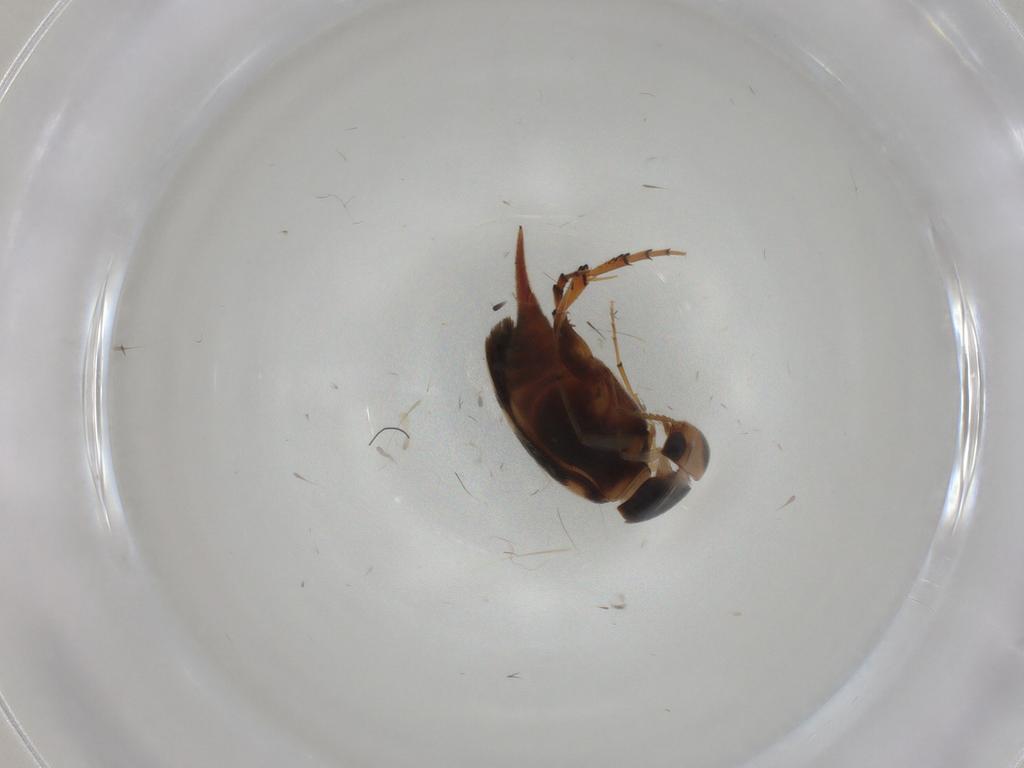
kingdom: Animalia
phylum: Arthropoda
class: Insecta
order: Coleoptera
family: Mordellidae
